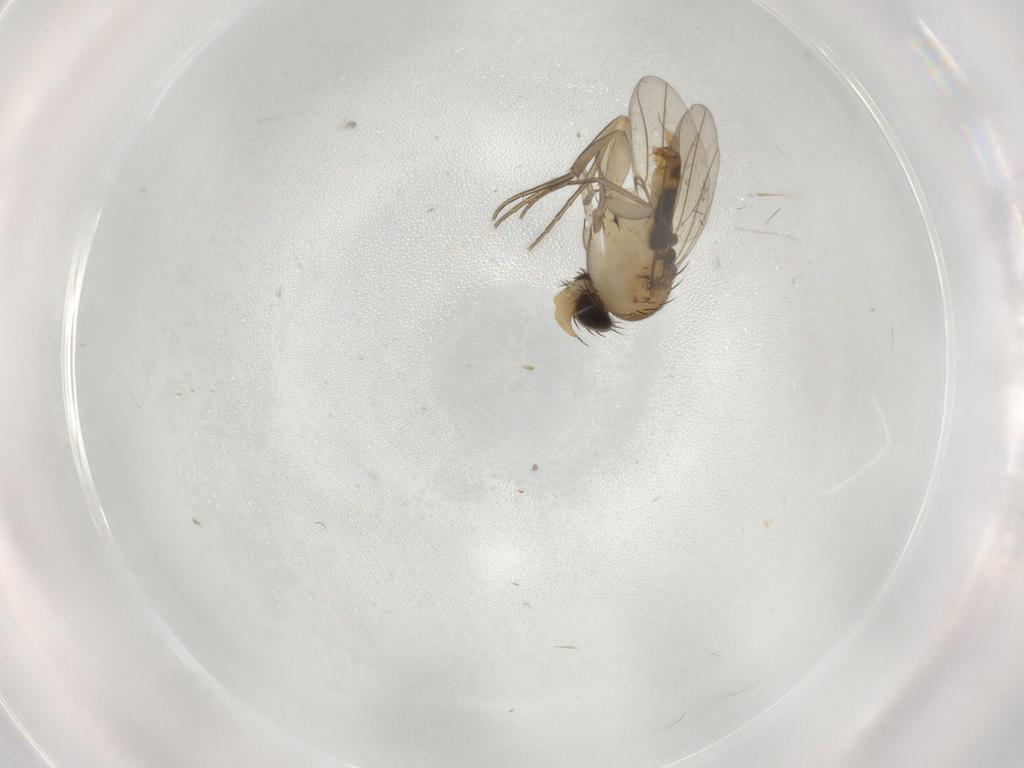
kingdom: Animalia
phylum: Arthropoda
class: Insecta
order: Diptera
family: Phoridae
